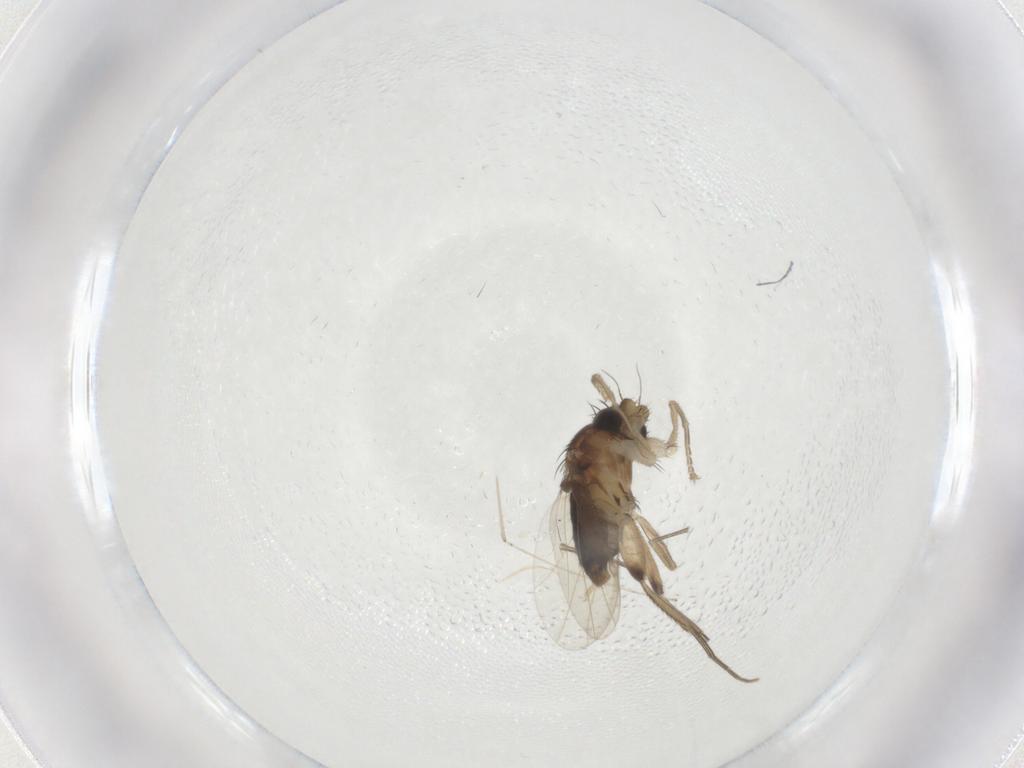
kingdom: Animalia
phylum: Arthropoda
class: Insecta
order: Diptera
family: Phoridae
